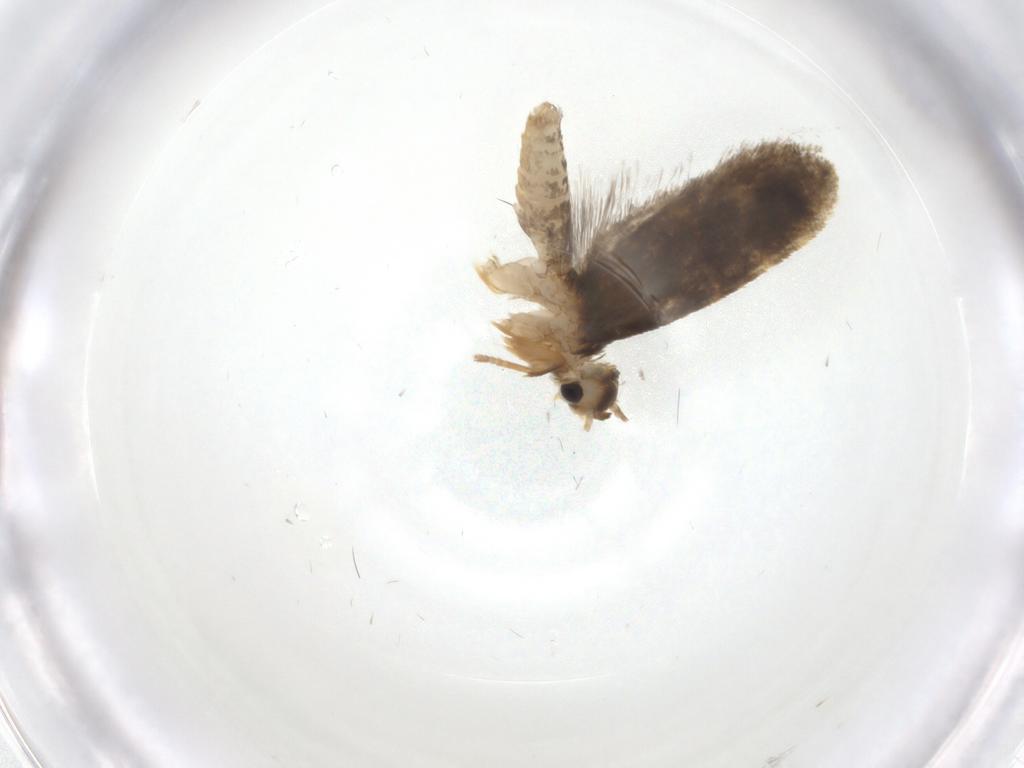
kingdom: Animalia
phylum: Arthropoda
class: Insecta
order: Lepidoptera
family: Psychidae
